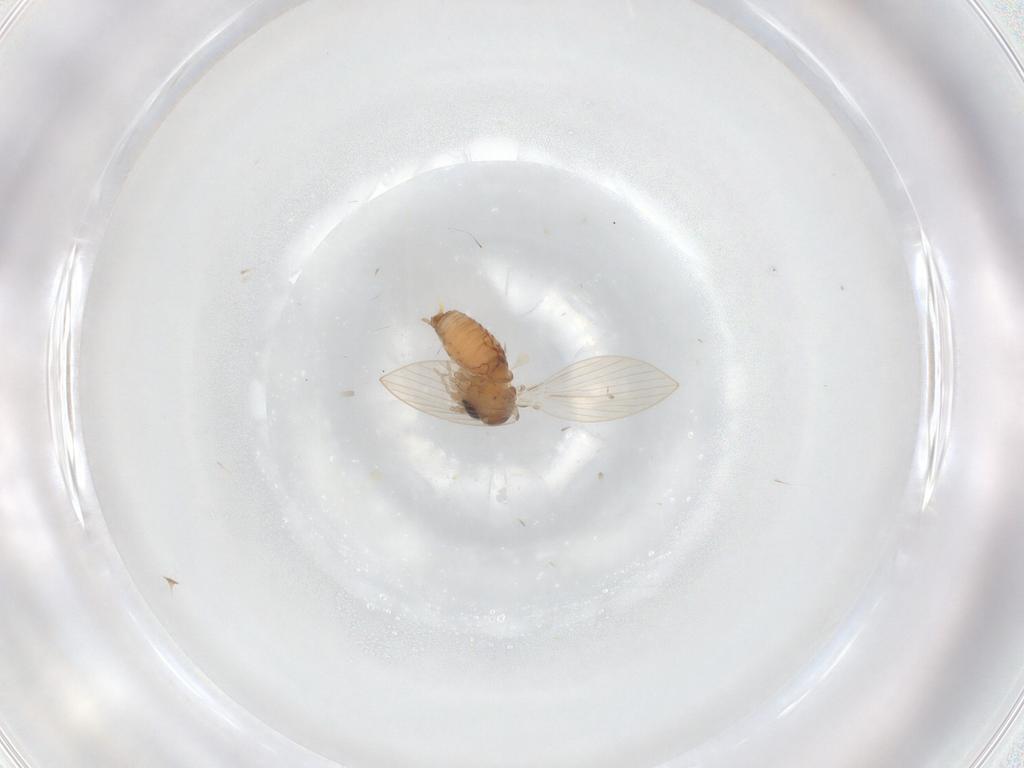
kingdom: Animalia
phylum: Arthropoda
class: Insecta
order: Diptera
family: Psychodidae
